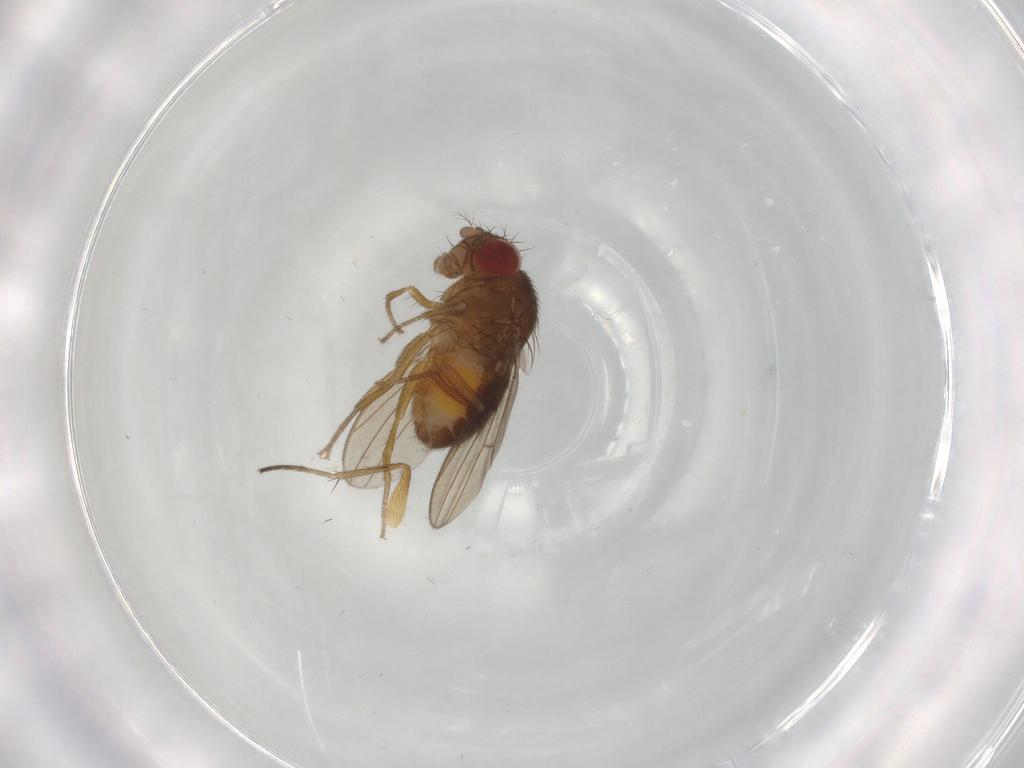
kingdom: Animalia
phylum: Arthropoda
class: Insecta
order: Diptera
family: Drosophilidae
